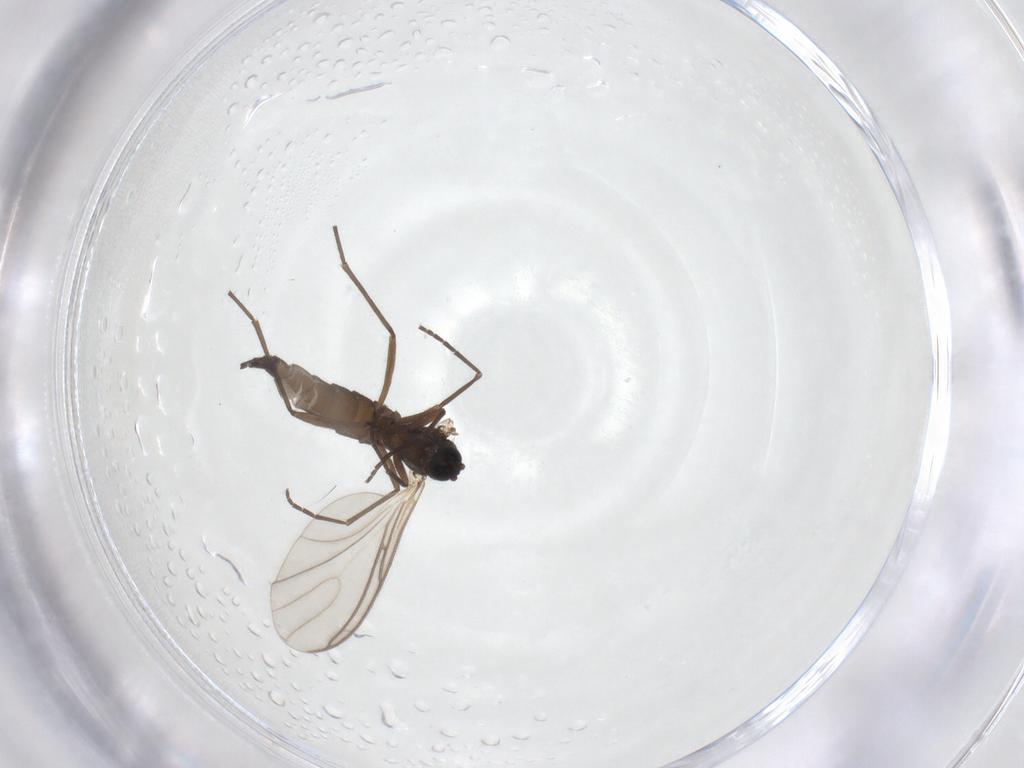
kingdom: Animalia
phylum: Arthropoda
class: Insecta
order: Diptera
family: Sciaridae
